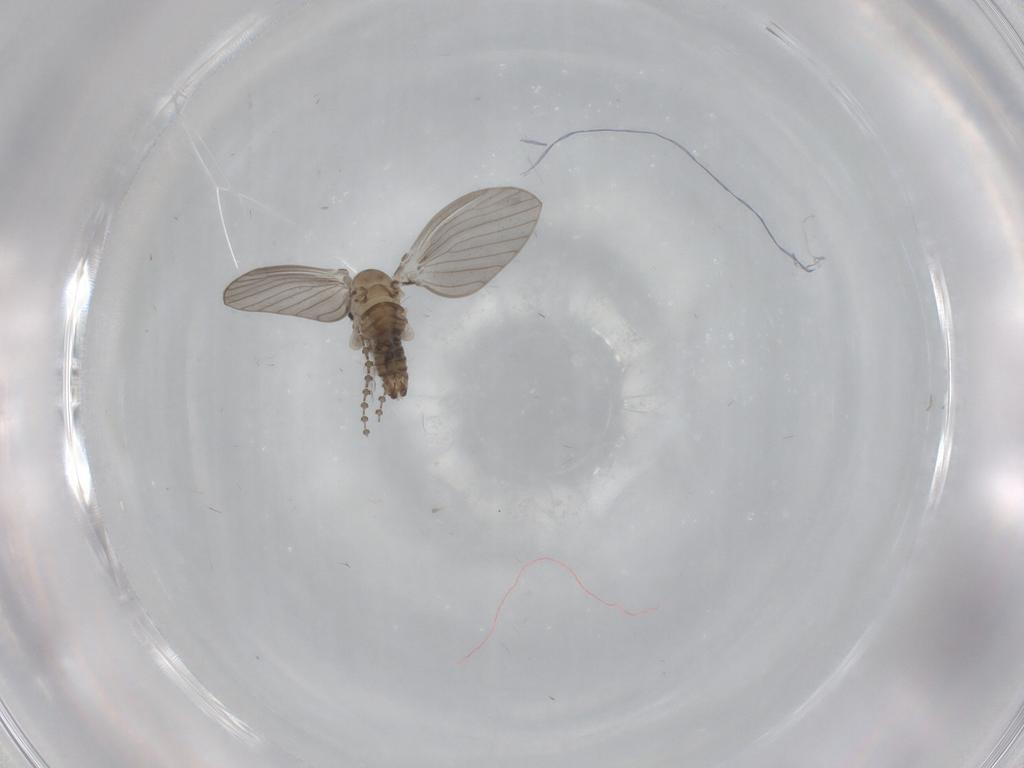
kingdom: Animalia
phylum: Arthropoda
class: Insecta
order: Diptera
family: Psychodidae
